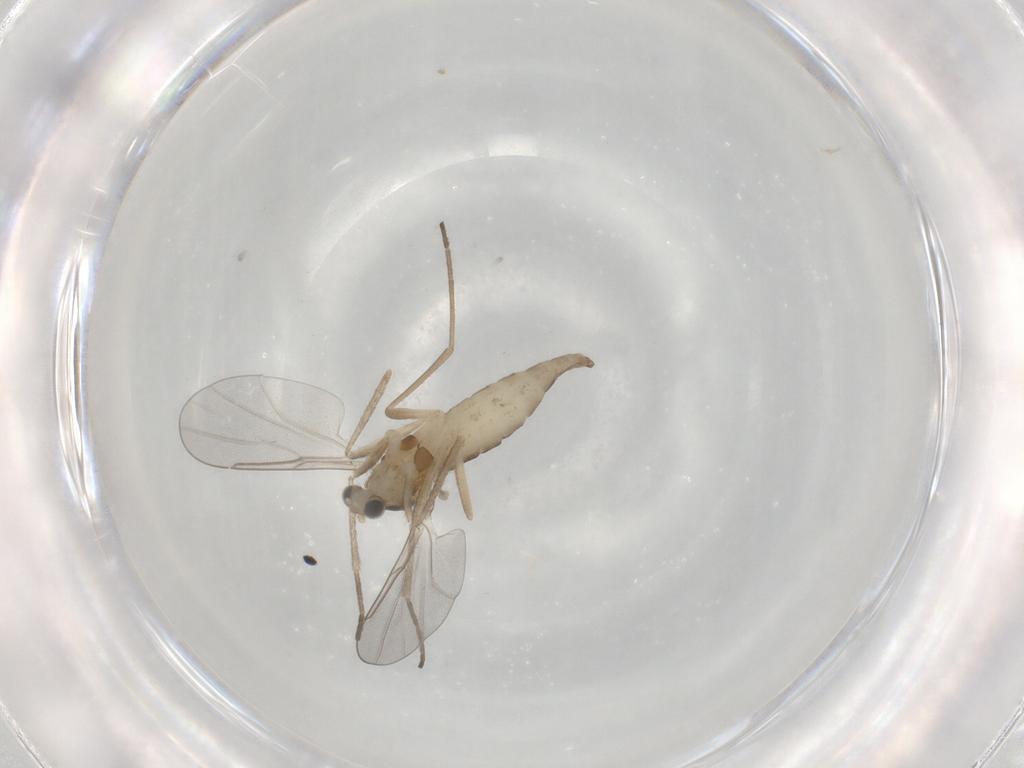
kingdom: Animalia
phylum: Arthropoda
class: Insecta
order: Diptera
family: Cecidomyiidae
